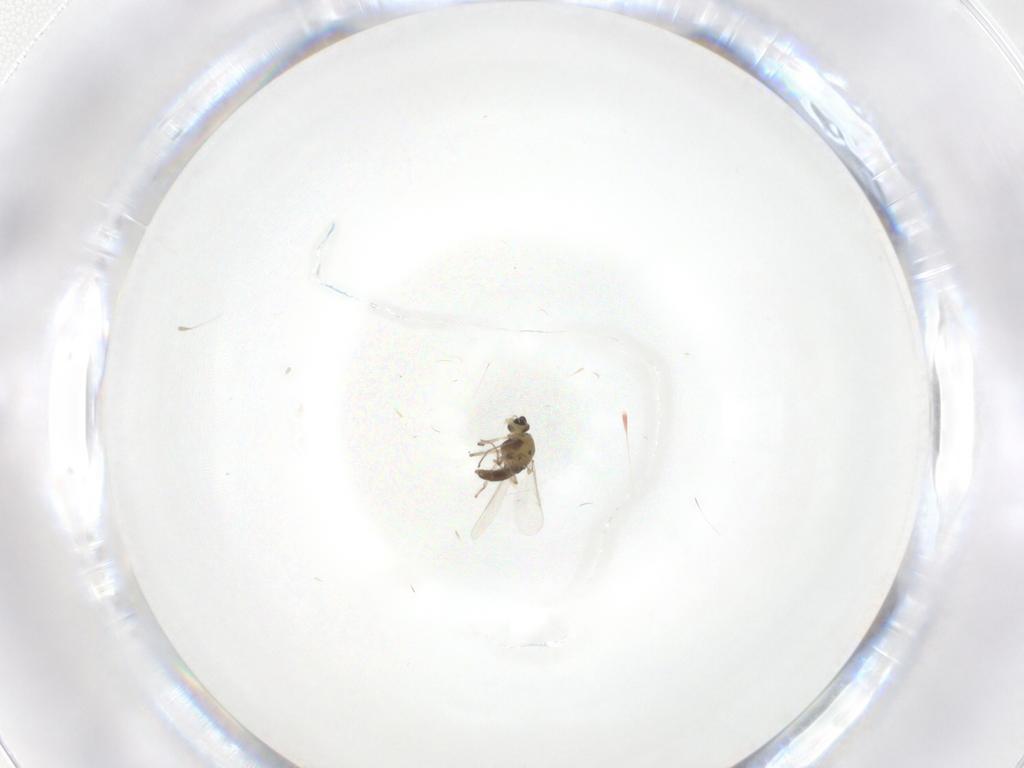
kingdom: Animalia
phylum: Arthropoda
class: Insecta
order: Diptera
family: Chironomidae
